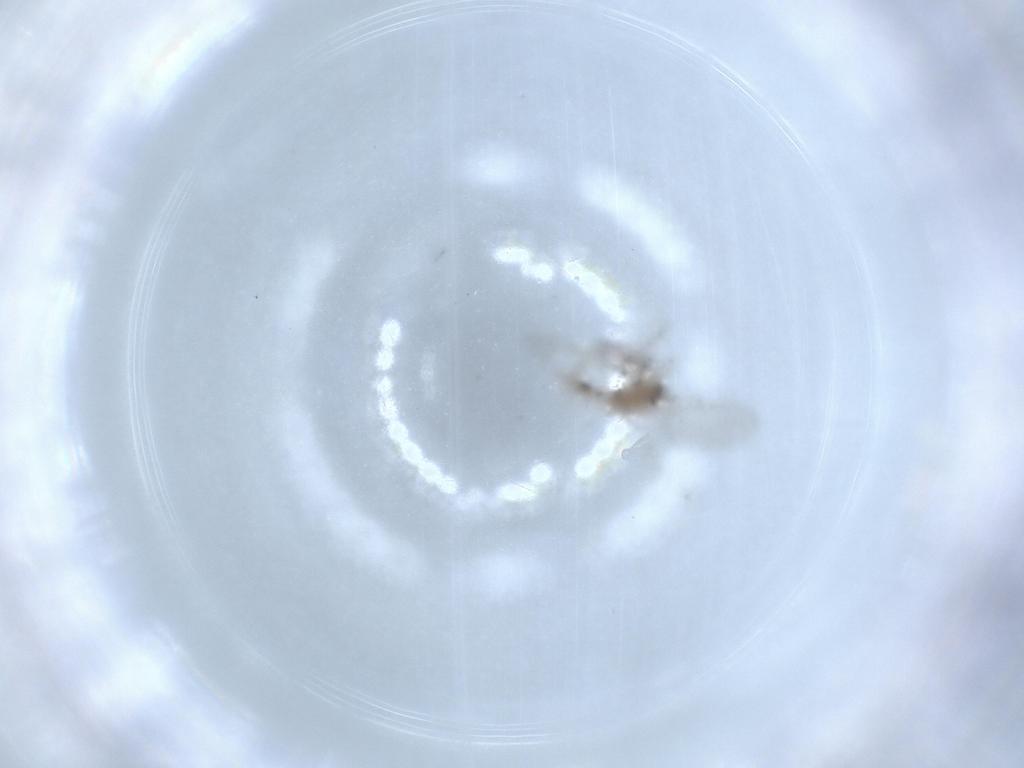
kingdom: Animalia
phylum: Arthropoda
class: Insecta
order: Diptera
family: Cecidomyiidae
